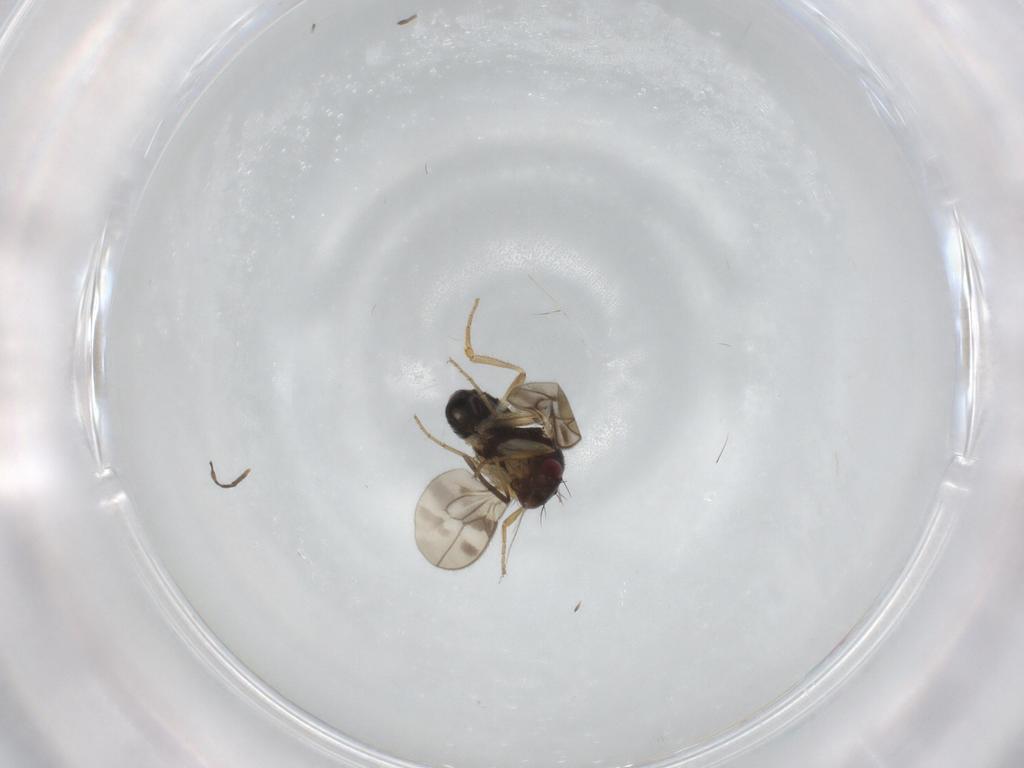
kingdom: Animalia
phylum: Arthropoda
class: Insecta
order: Diptera
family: Sphaeroceridae
